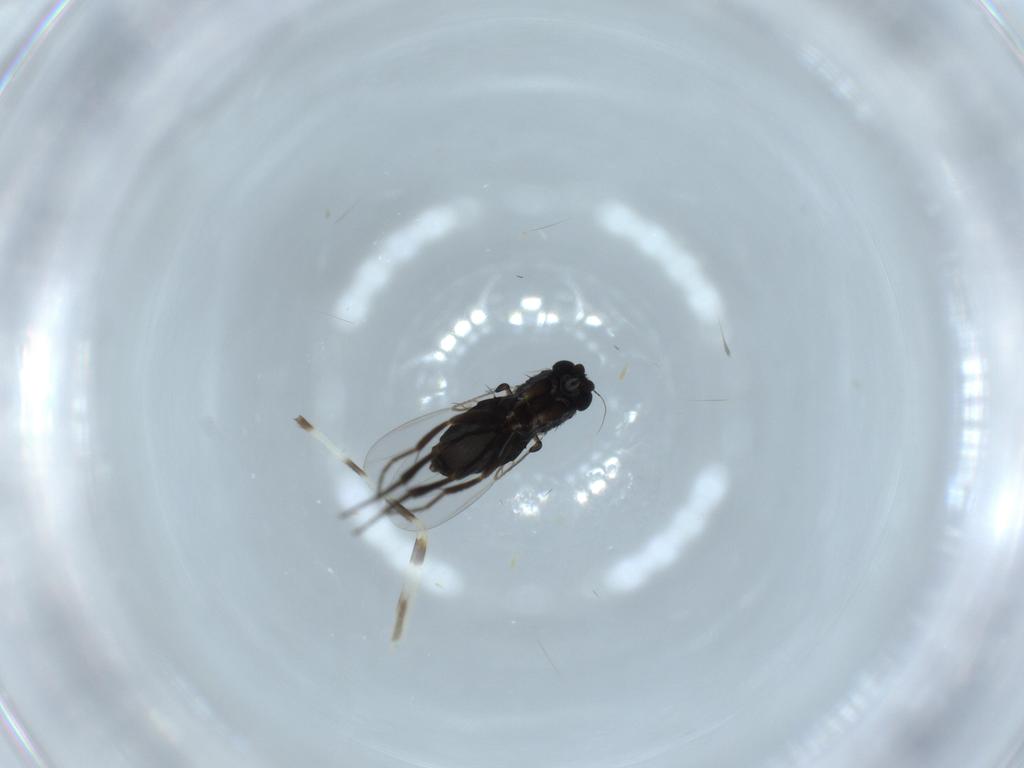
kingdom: Animalia
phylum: Arthropoda
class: Insecta
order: Diptera
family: Phoridae
